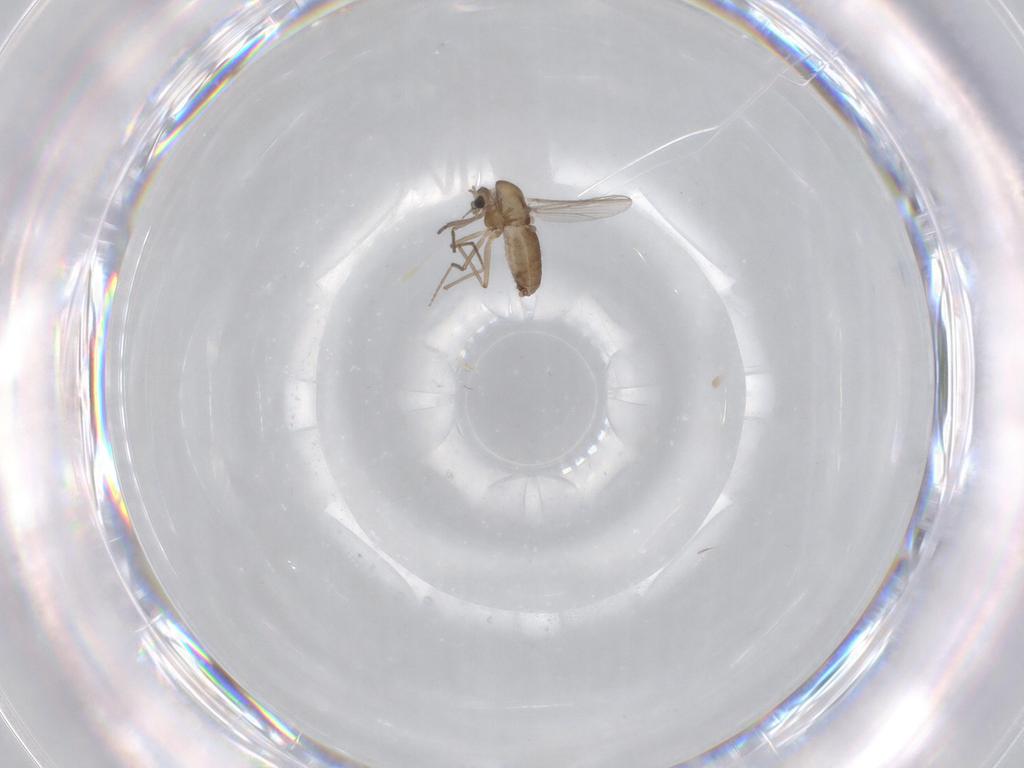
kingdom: Animalia
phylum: Arthropoda
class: Insecta
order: Diptera
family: Chironomidae
